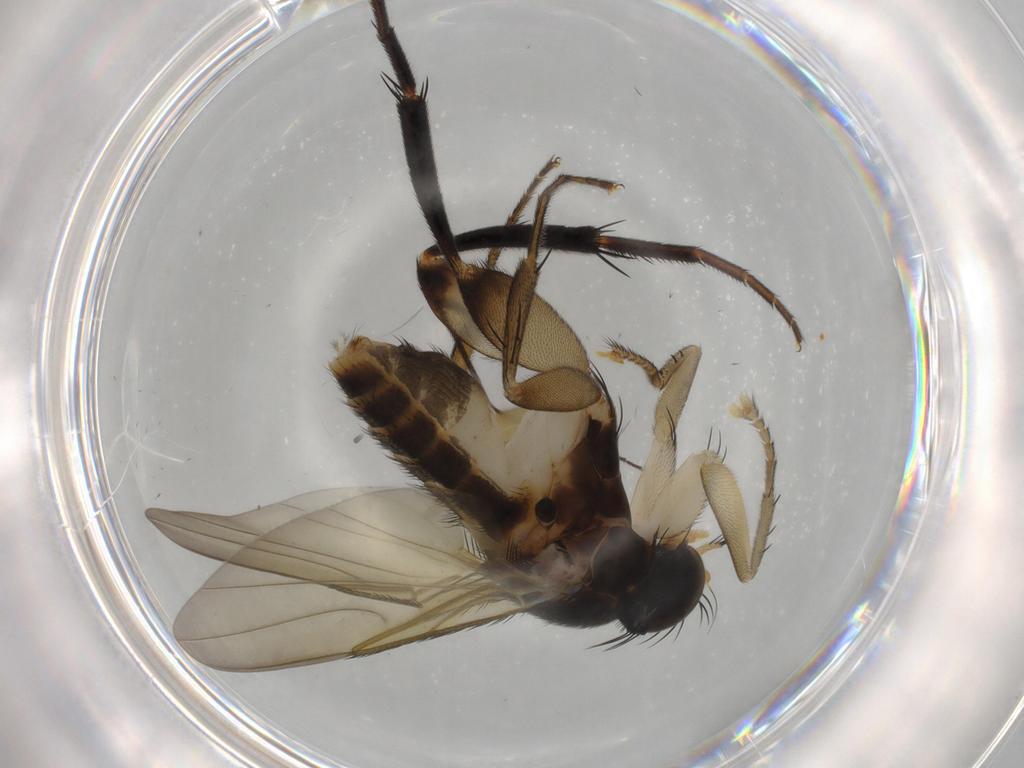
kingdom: Animalia
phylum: Arthropoda
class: Insecta
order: Diptera
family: Phoridae
